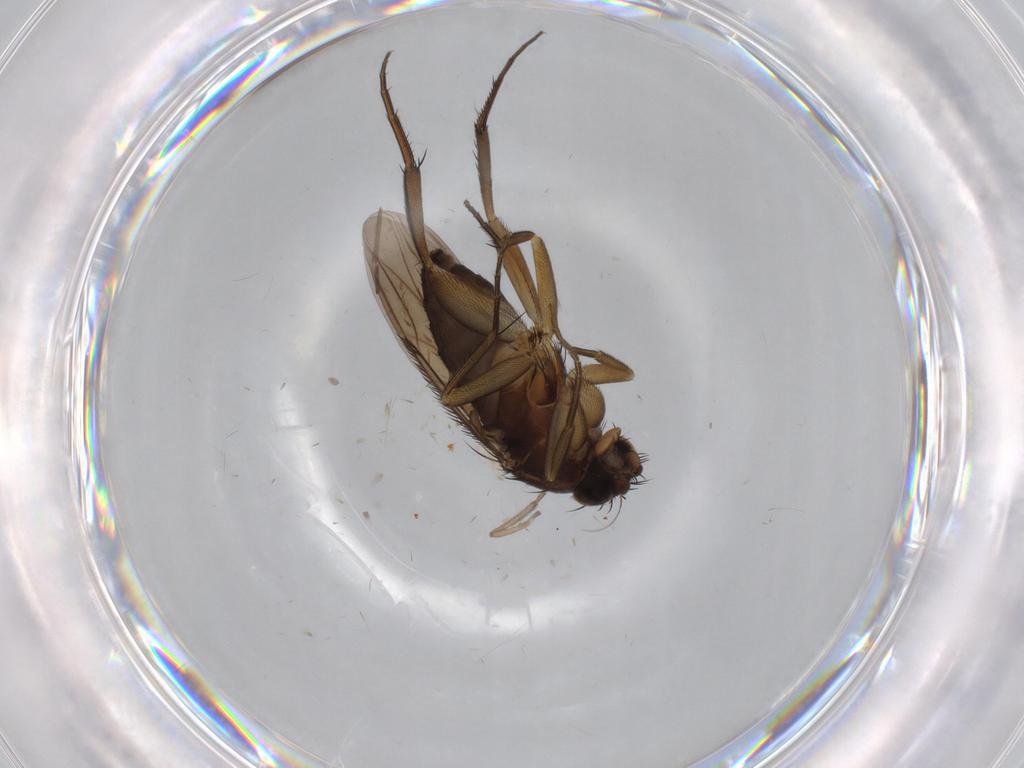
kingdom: Animalia
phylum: Arthropoda
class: Insecta
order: Diptera
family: Phoridae
